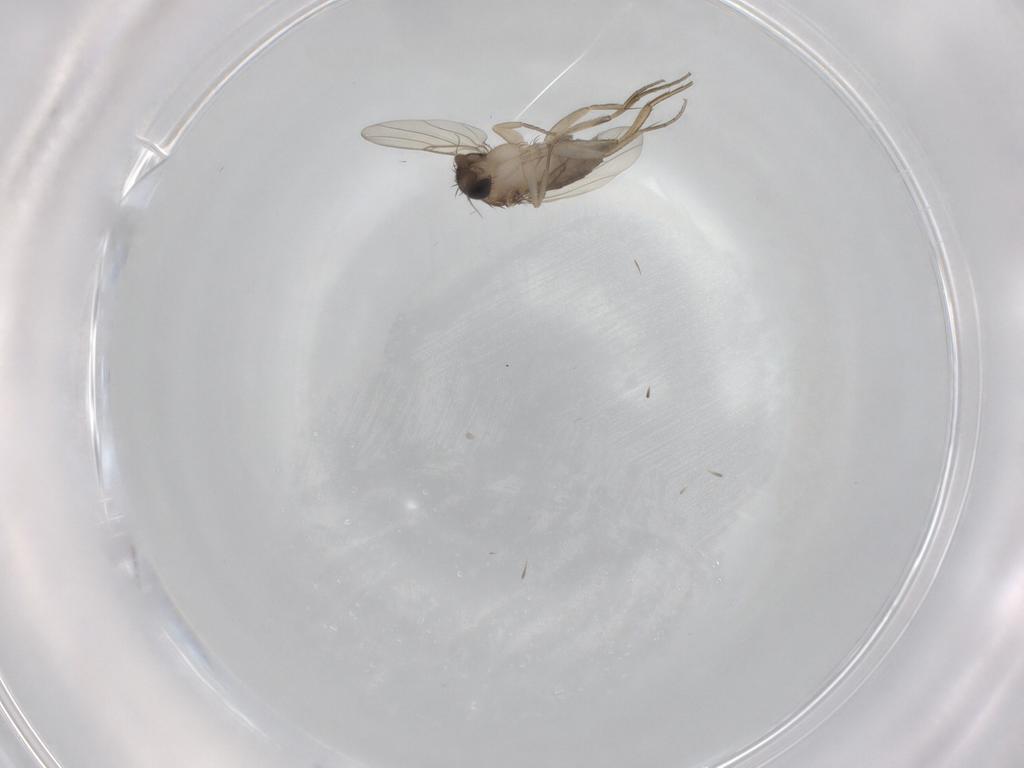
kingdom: Animalia
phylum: Arthropoda
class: Insecta
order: Diptera
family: Phoridae
